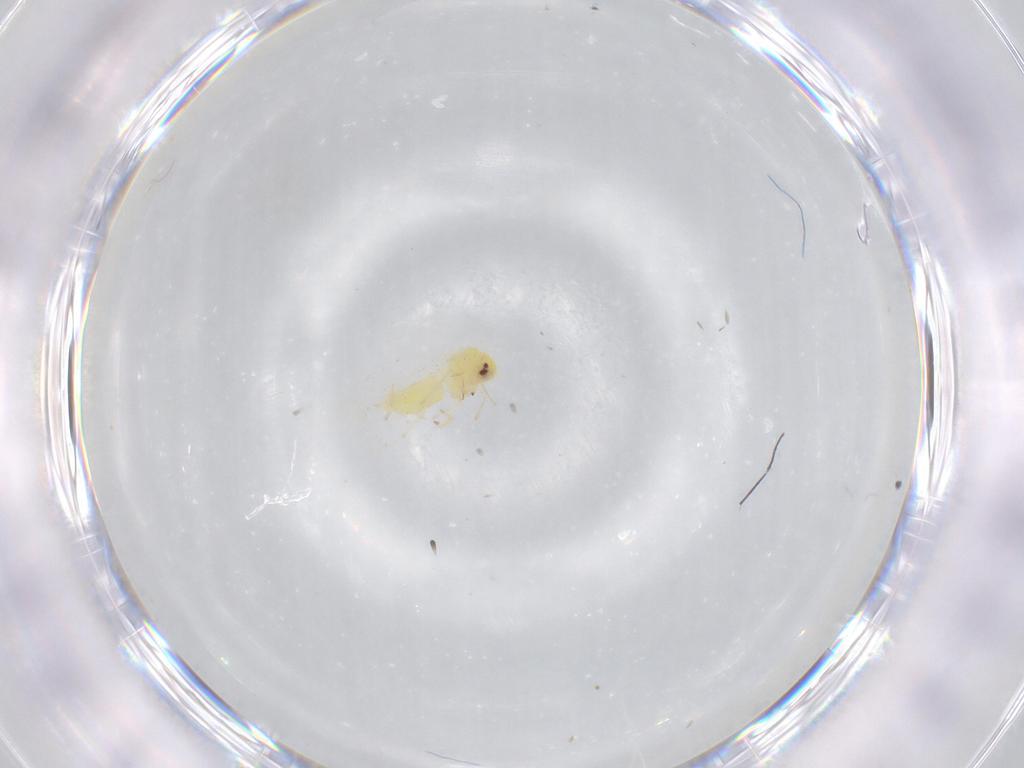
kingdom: Animalia
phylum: Arthropoda
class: Insecta
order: Hemiptera
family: Aleyrodidae
